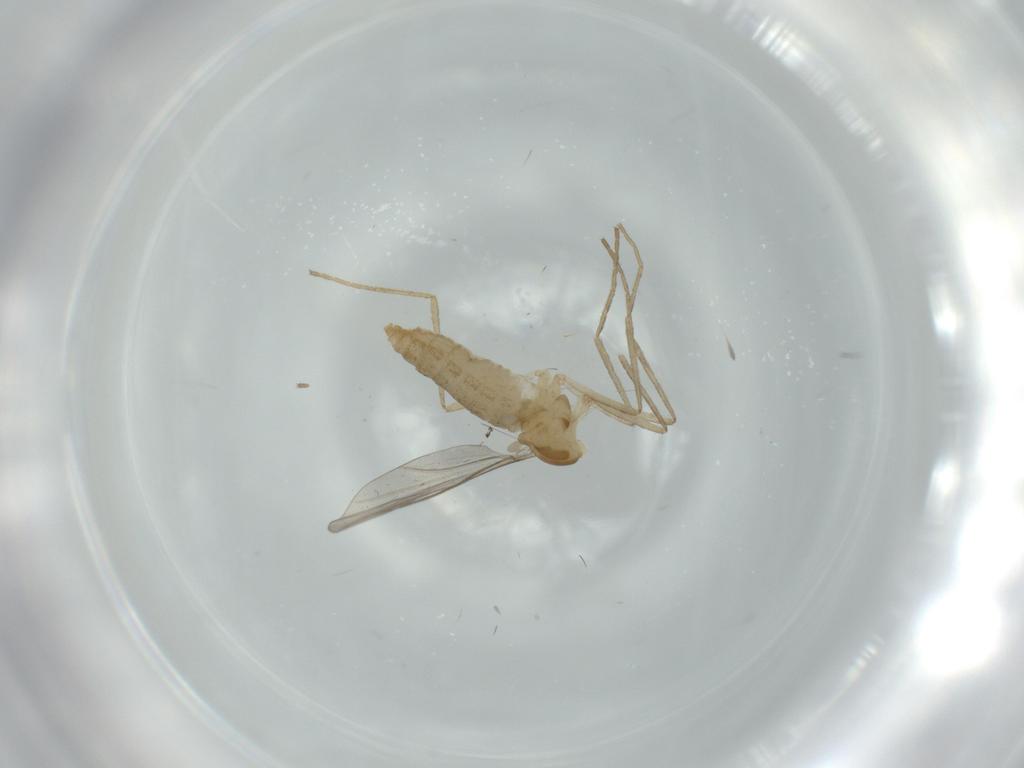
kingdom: Animalia
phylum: Arthropoda
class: Insecta
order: Diptera
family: Cecidomyiidae
